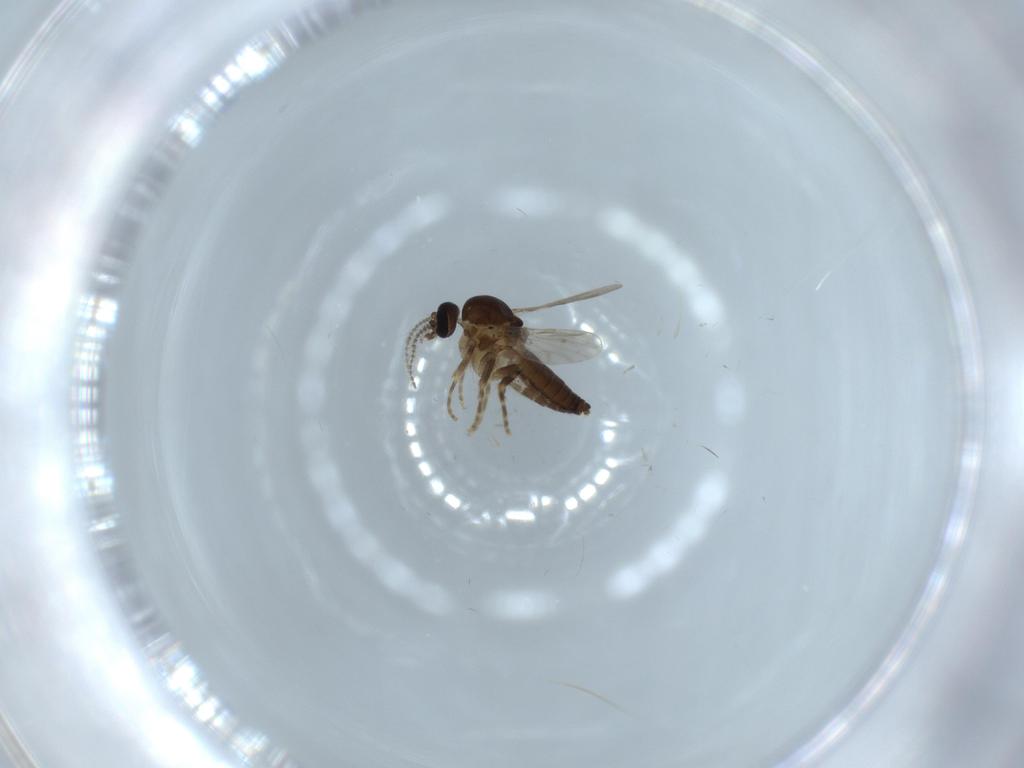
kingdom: Animalia
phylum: Arthropoda
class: Insecta
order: Diptera
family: Ceratopogonidae
